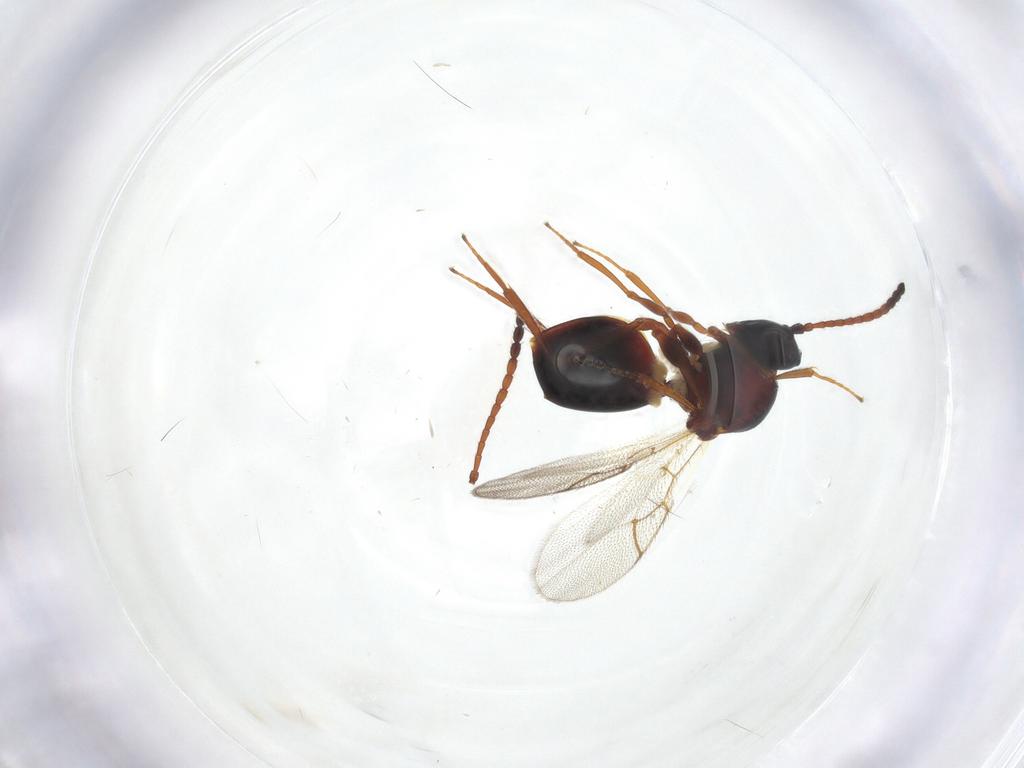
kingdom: Animalia
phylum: Arthropoda
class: Insecta
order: Hymenoptera
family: Figitidae
